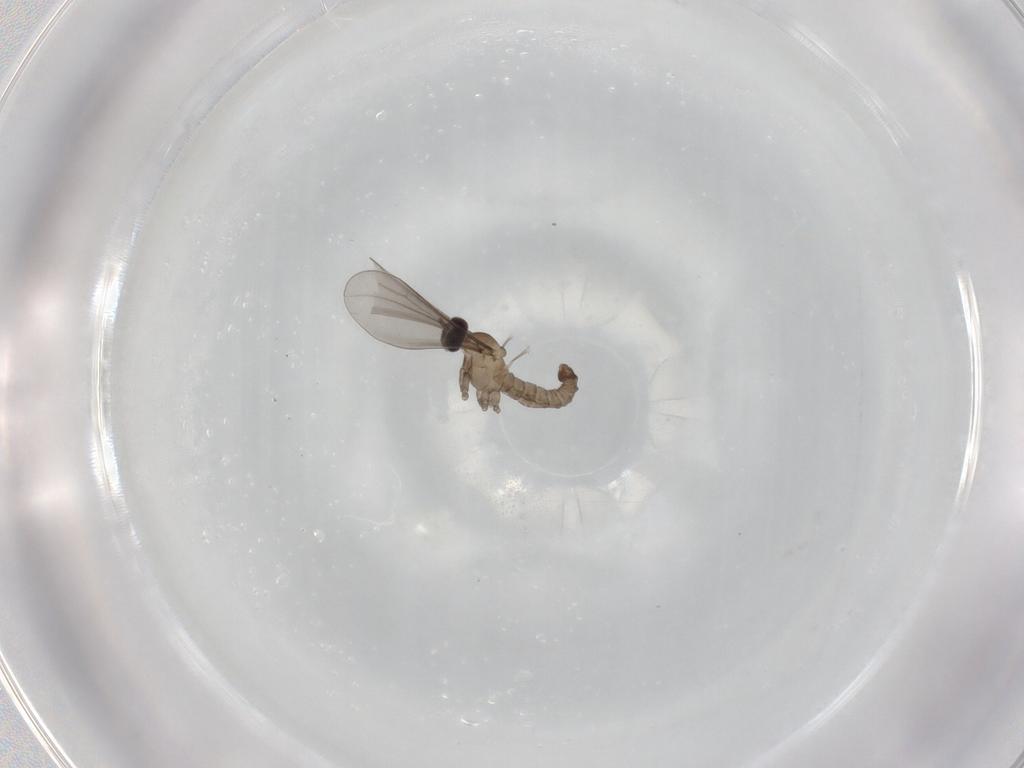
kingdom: Animalia
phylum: Arthropoda
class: Insecta
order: Diptera
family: Cecidomyiidae
